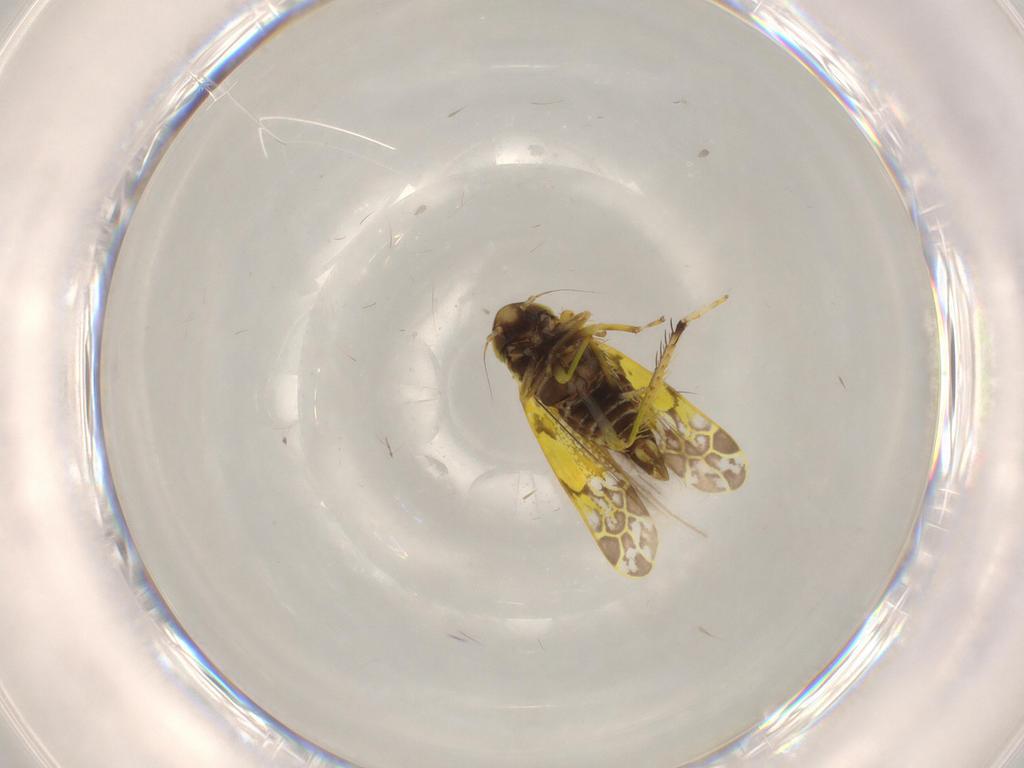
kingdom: Animalia
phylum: Arthropoda
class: Insecta
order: Hemiptera
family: Cicadellidae
